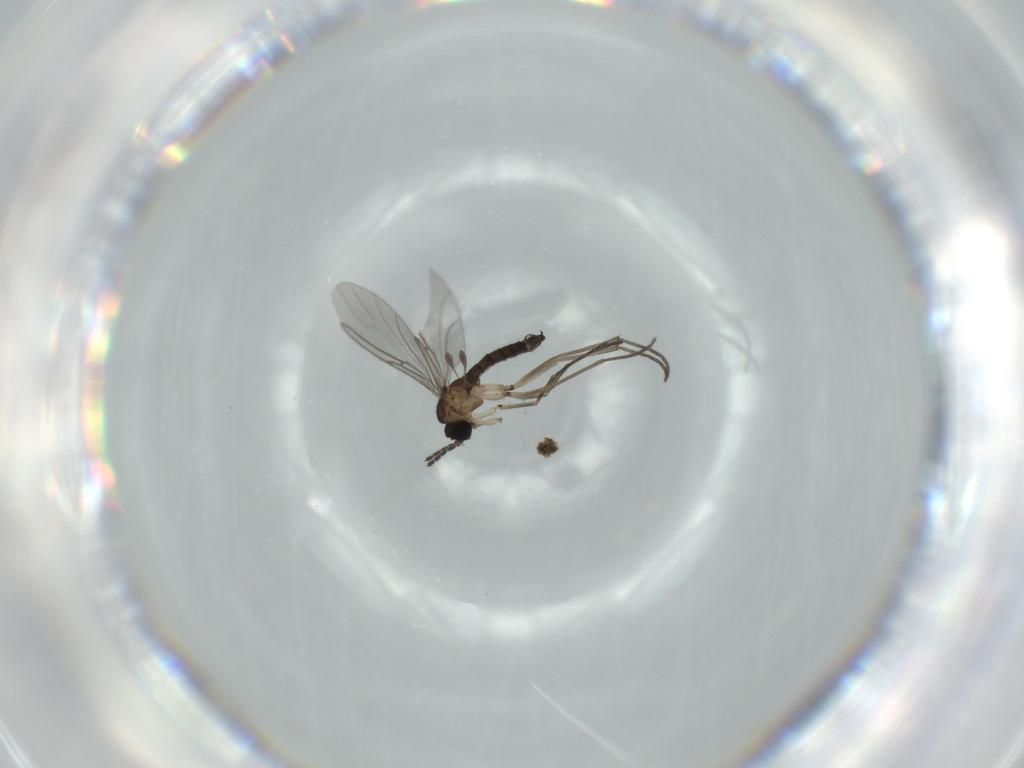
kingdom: Animalia
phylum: Arthropoda
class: Insecta
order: Diptera
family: Sciaridae
